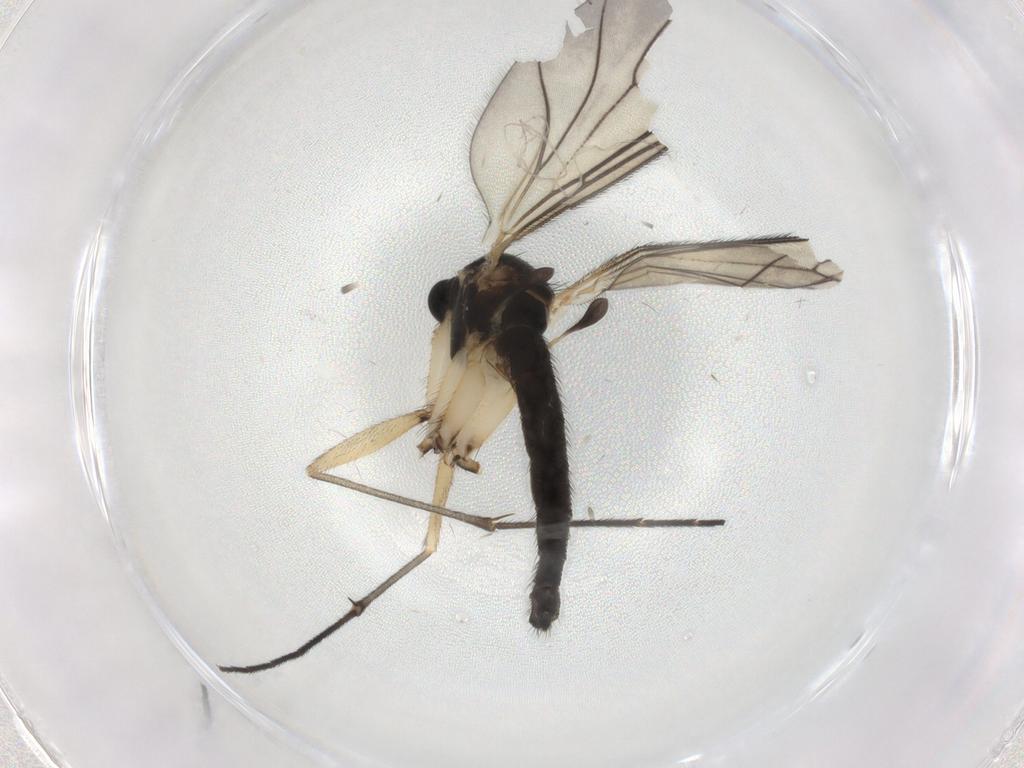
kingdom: Animalia
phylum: Arthropoda
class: Insecta
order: Diptera
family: Sciaridae
